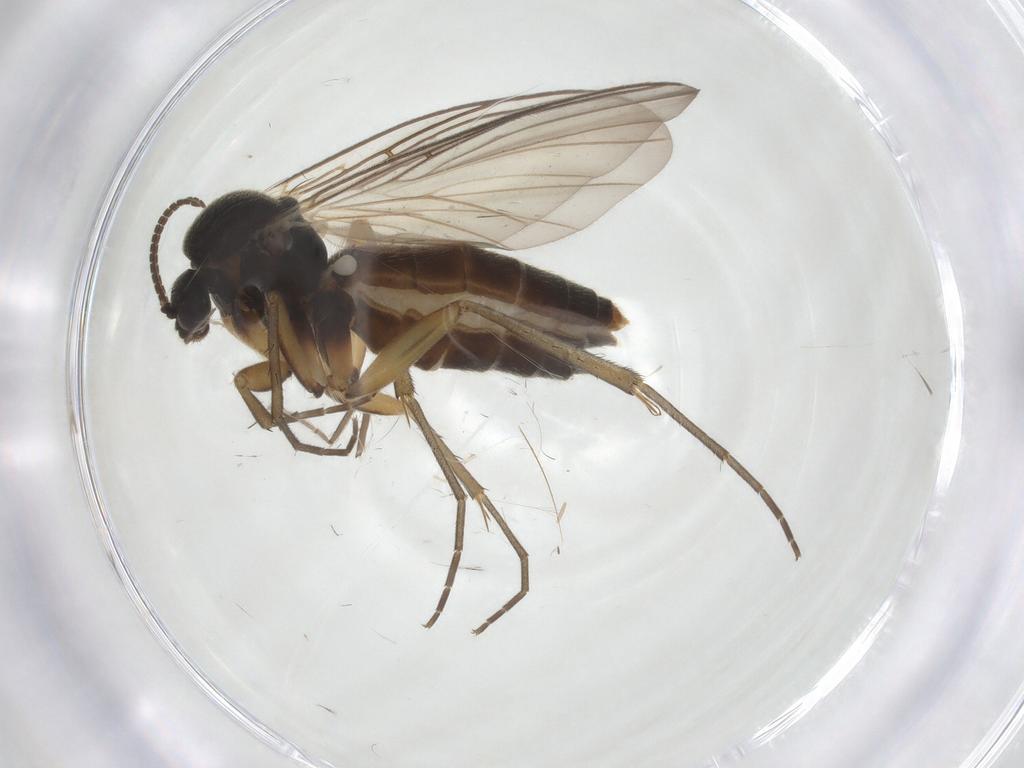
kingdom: Animalia
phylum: Arthropoda
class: Insecta
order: Diptera
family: Mycetophilidae
